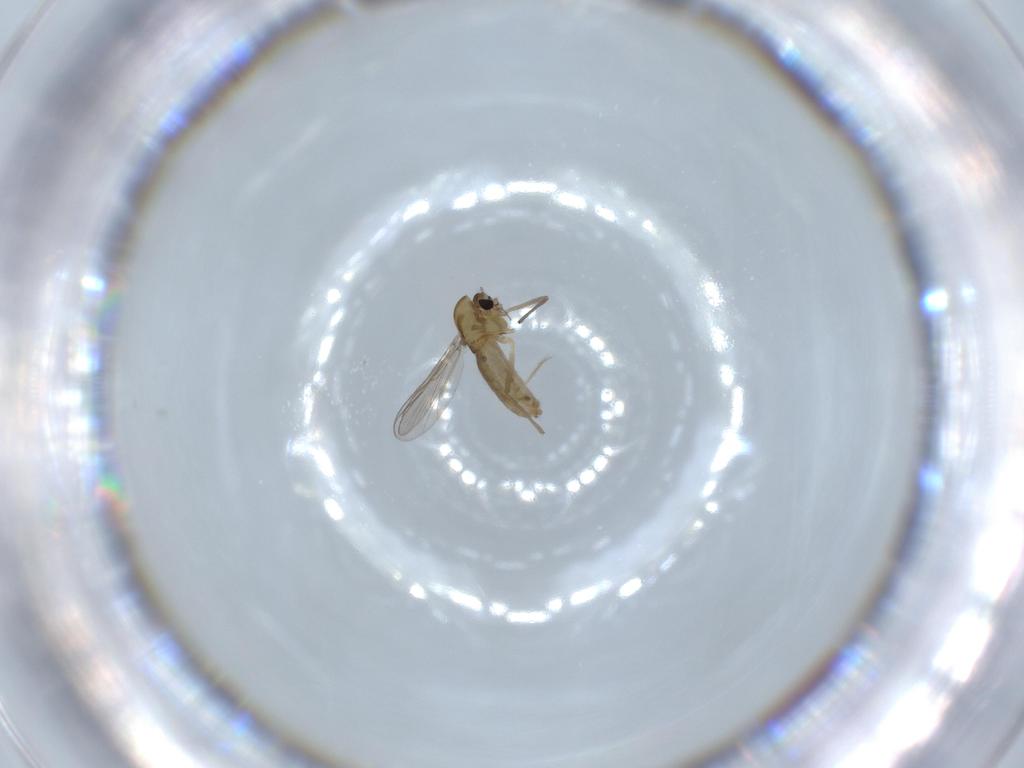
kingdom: Animalia
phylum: Arthropoda
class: Insecta
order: Diptera
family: Chironomidae
